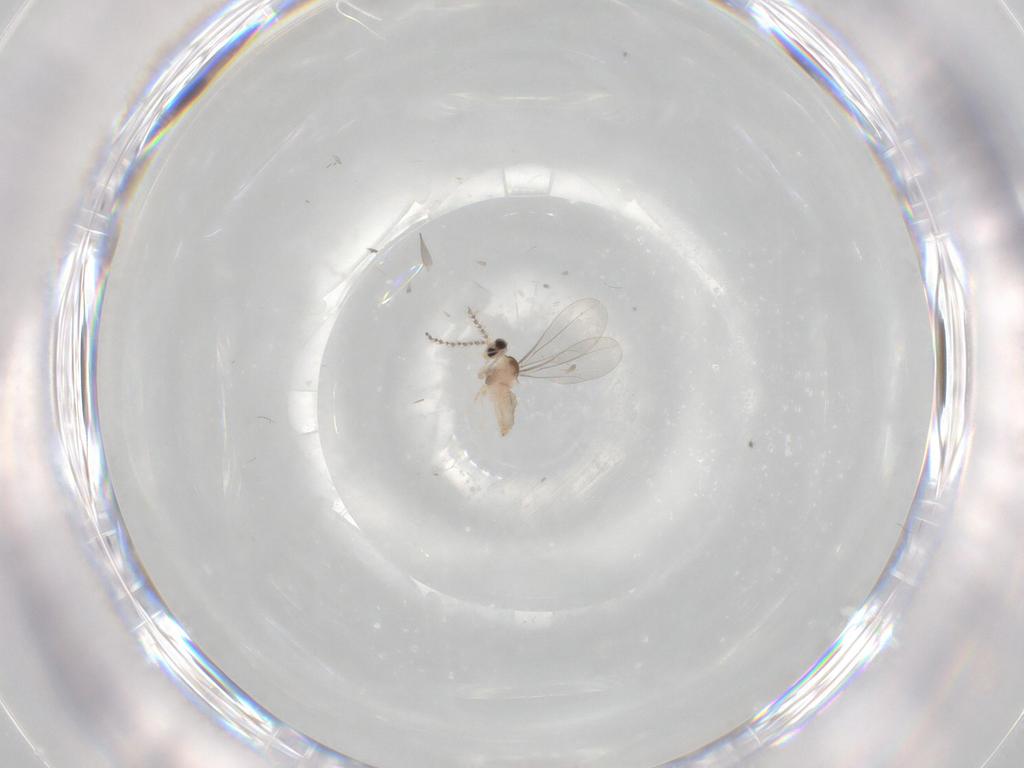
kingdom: Animalia
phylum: Arthropoda
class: Insecta
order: Diptera
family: Cecidomyiidae
